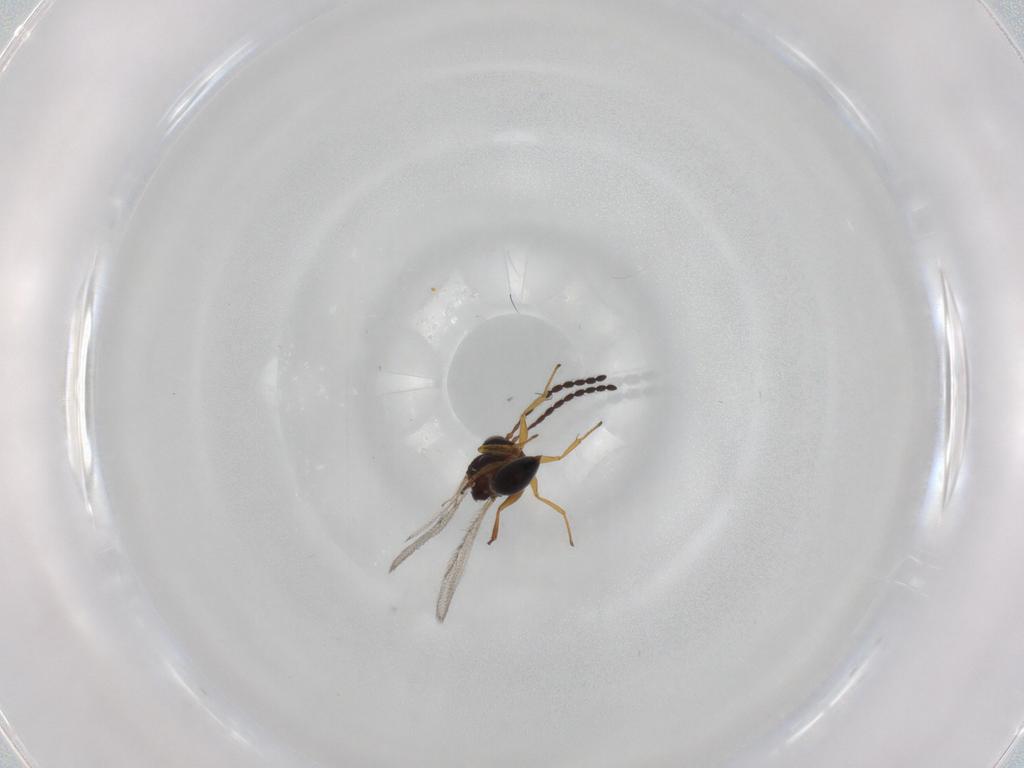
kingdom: Animalia
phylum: Arthropoda
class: Insecta
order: Hymenoptera
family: Figitidae
